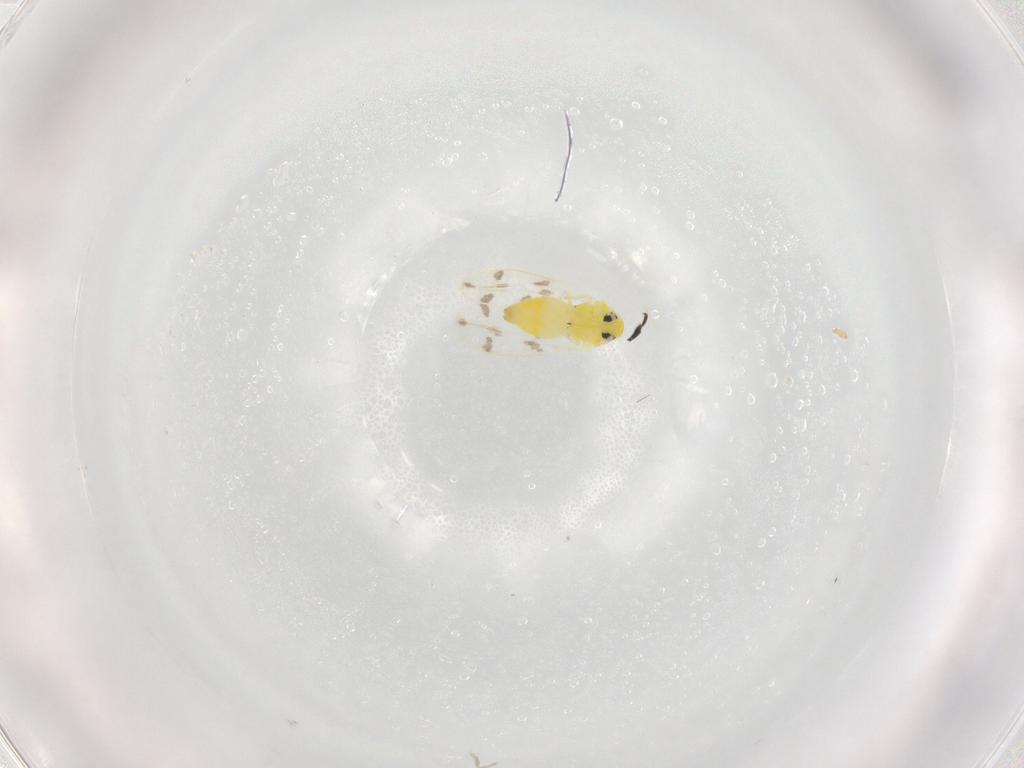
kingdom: Animalia
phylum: Arthropoda
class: Insecta
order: Hemiptera
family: Aleyrodidae
